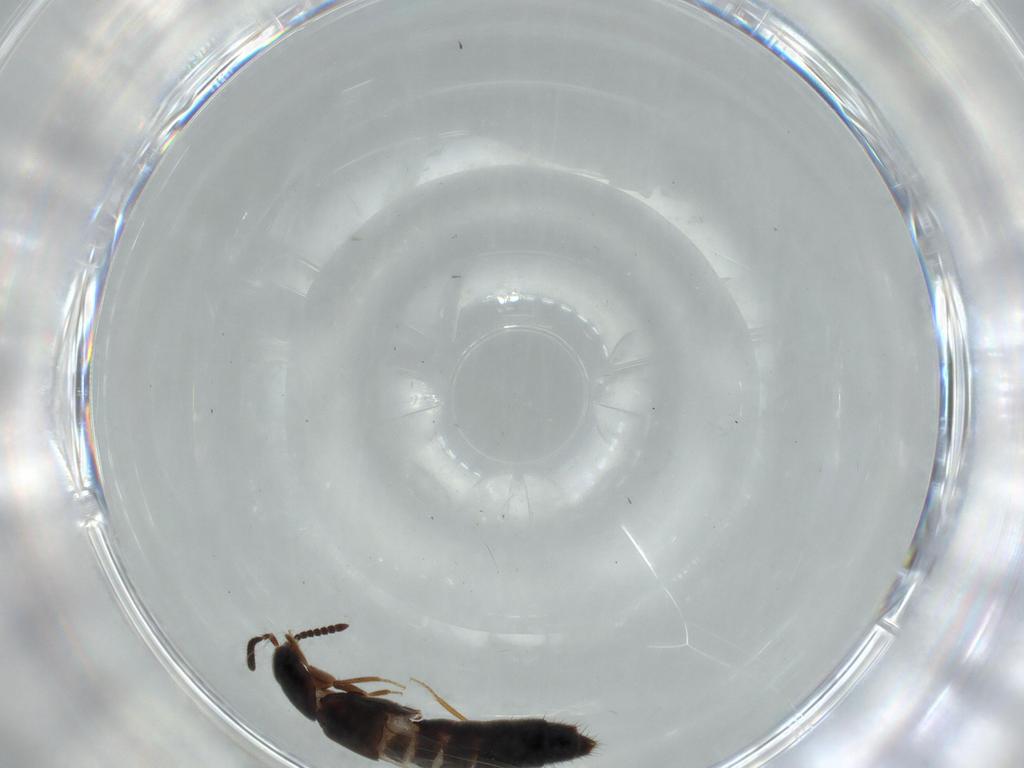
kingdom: Animalia
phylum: Arthropoda
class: Insecta
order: Coleoptera
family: Staphylinidae
